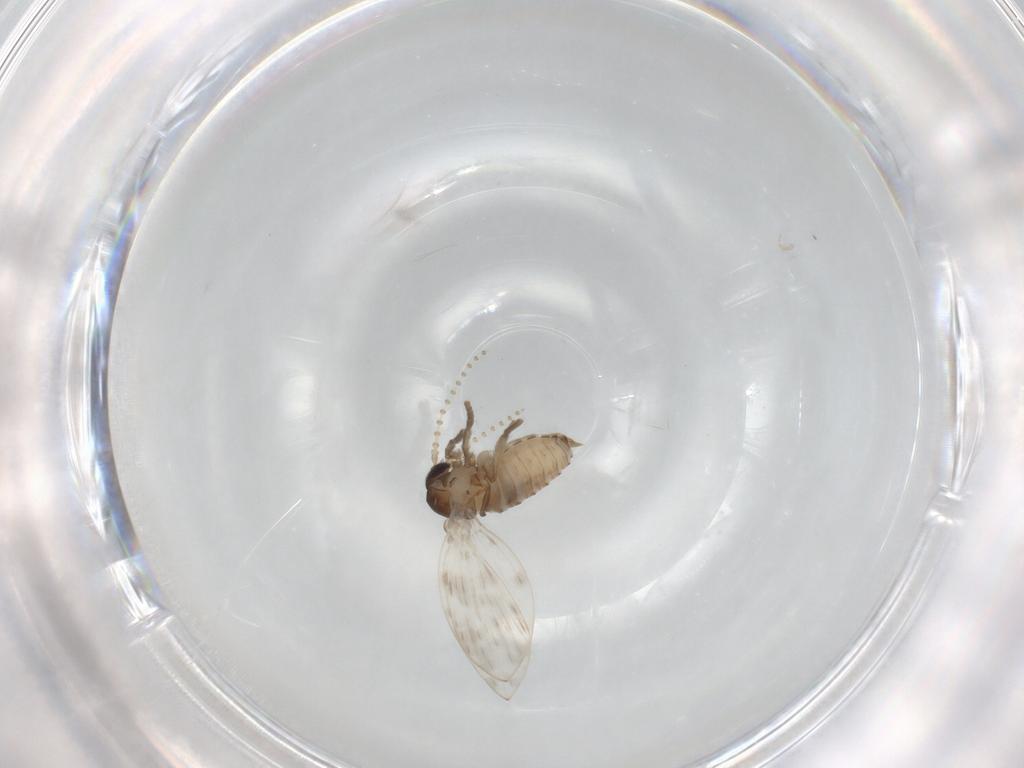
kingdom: Animalia
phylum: Arthropoda
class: Insecta
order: Diptera
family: Psychodidae
